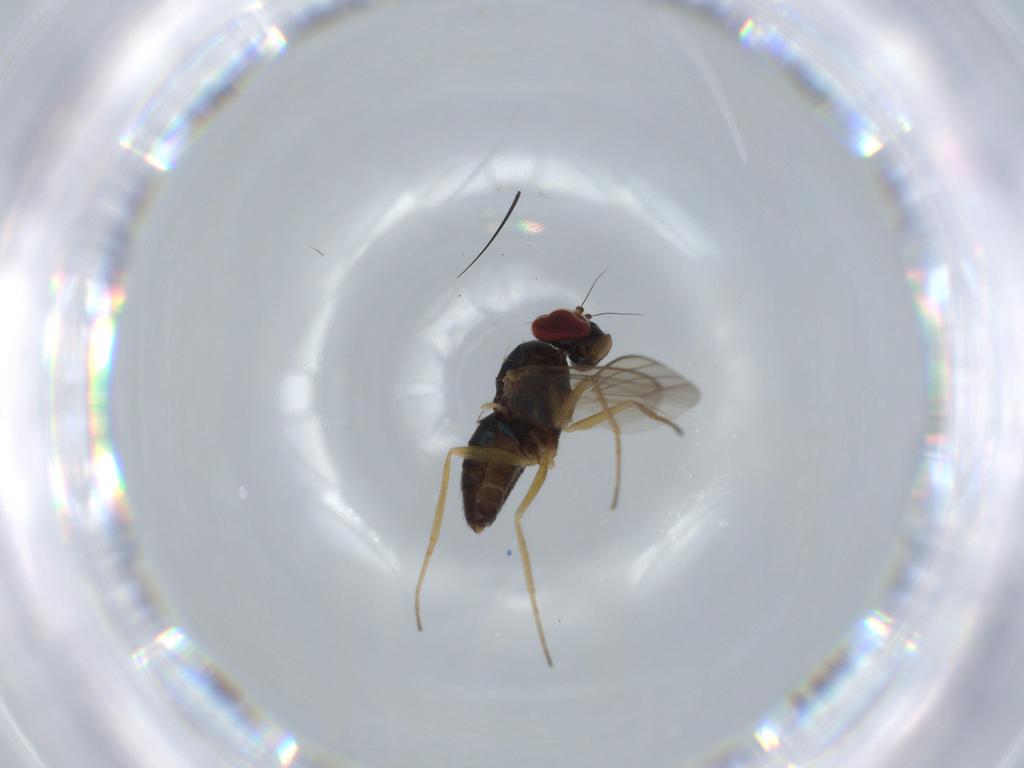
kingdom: Animalia
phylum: Arthropoda
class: Insecta
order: Diptera
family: Dolichopodidae
